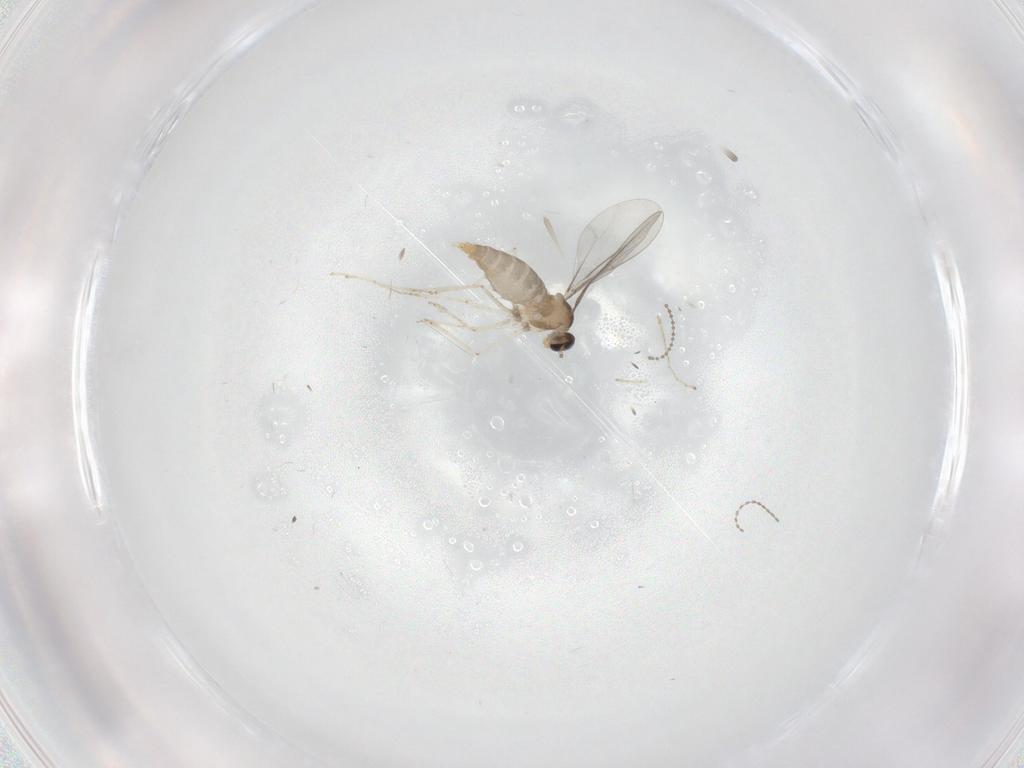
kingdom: Animalia
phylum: Arthropoda
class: Insecta
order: Diptera
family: Cecidomyiidae
